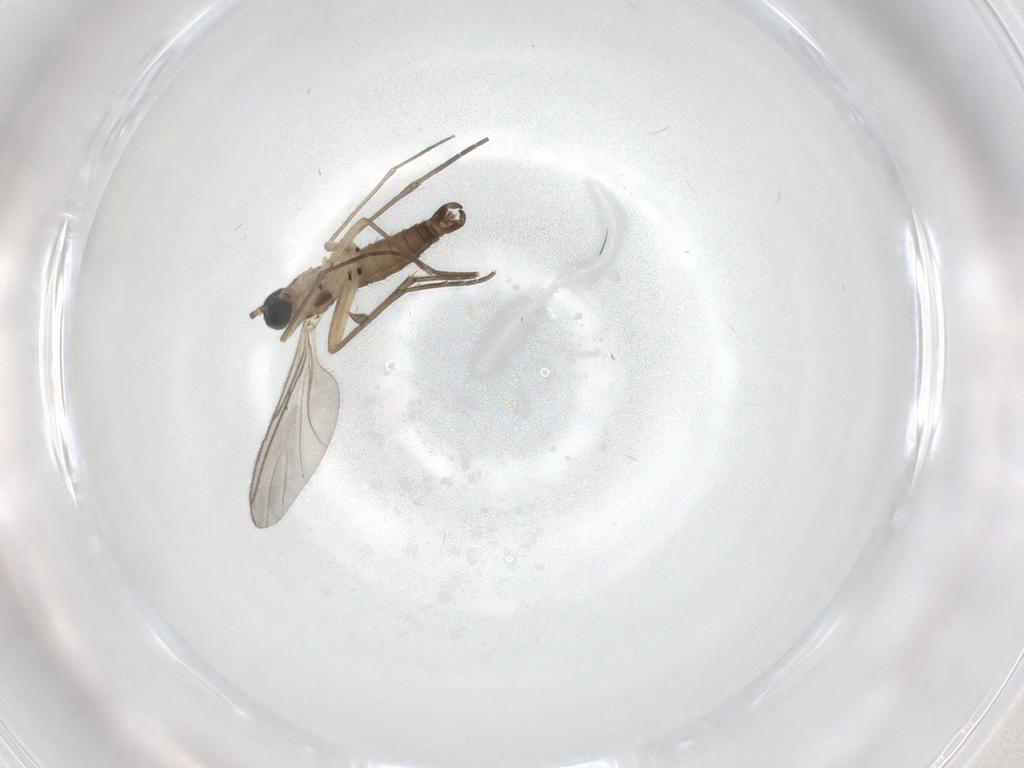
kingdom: Animalia
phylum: Arthropoda
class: Insecta
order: Diptera
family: Sciaridae
